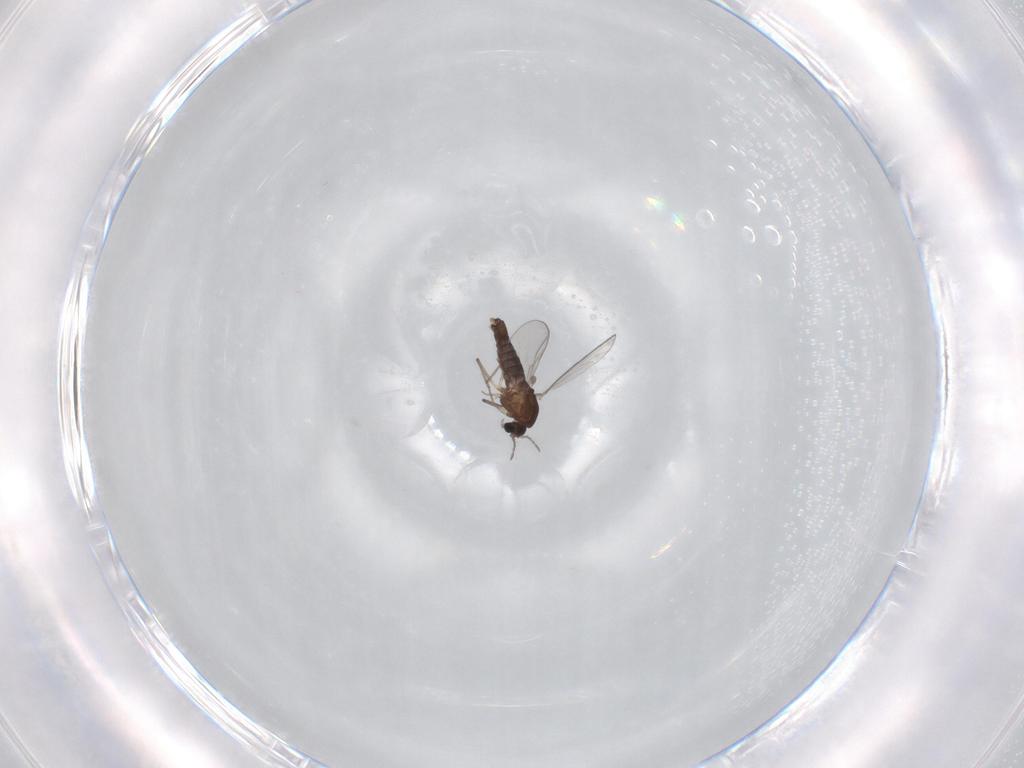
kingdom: Animalia
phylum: Arthropoda
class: Insecta
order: Diptera
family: Chironomidae
